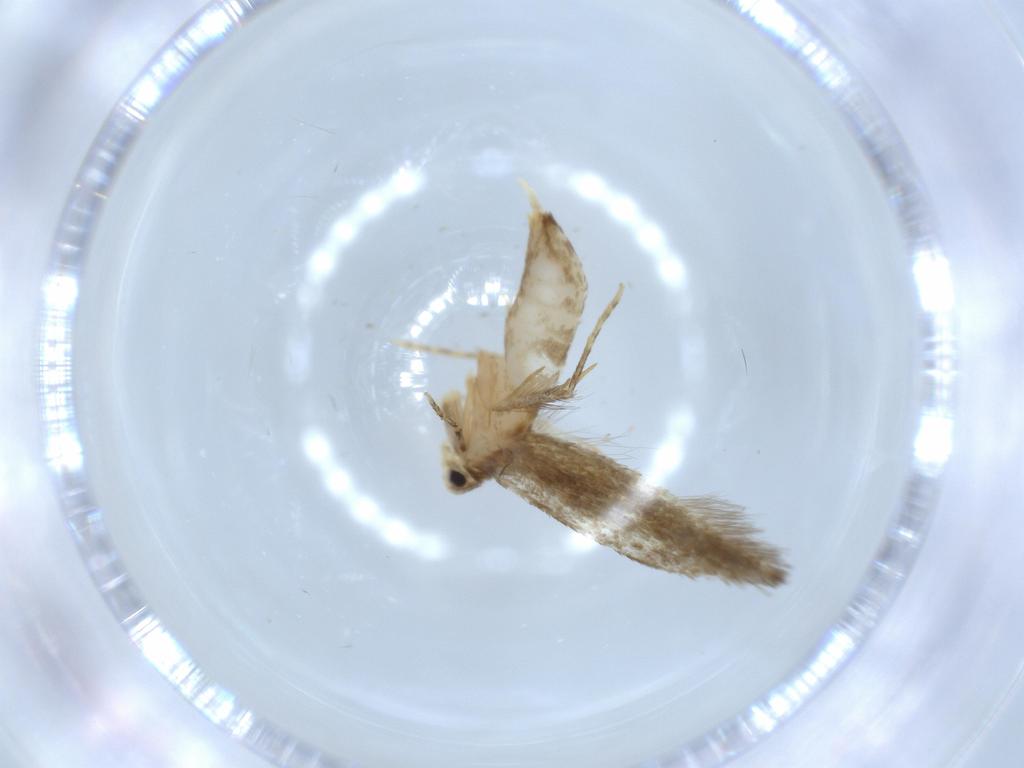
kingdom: Animalia
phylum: Arthropoda
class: Insecta
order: Lepidoptera
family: Tineidae
